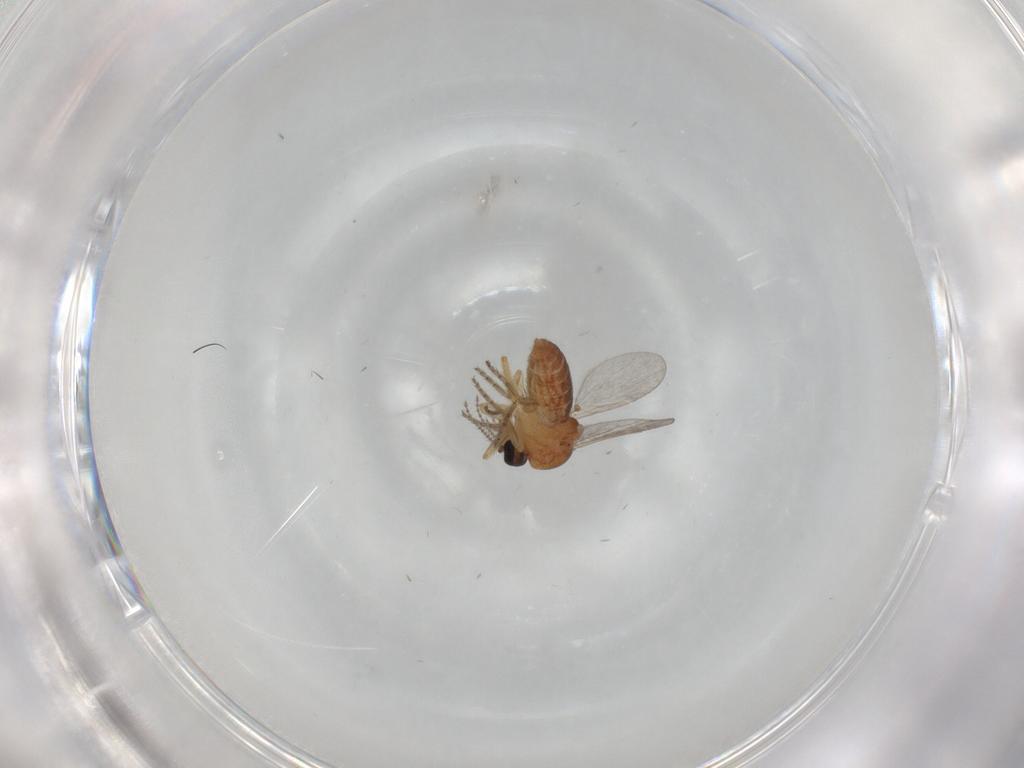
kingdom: Animalia
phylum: Arthropoda
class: Insecta
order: Diptera
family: Ceratopogonidae
